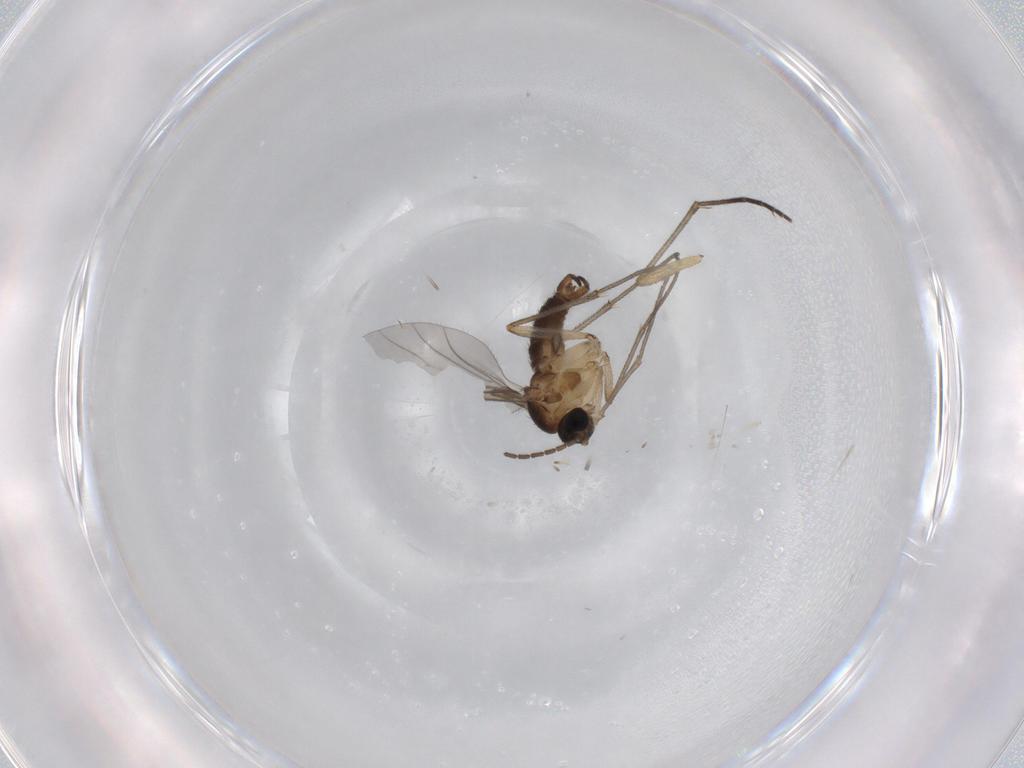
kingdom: Animalia
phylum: Arthropoda
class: Insecta
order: Diptera
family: Sciaridae
